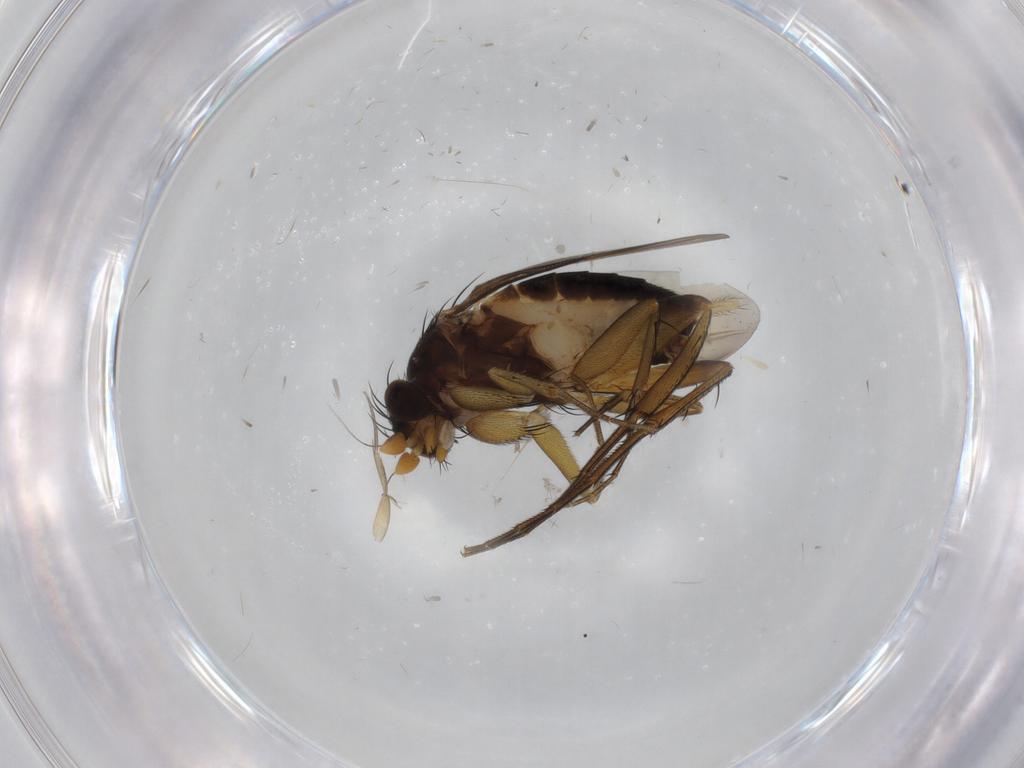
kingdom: Animalia
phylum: Arthropoda
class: Insecta
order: Diptera
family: Phoridae
